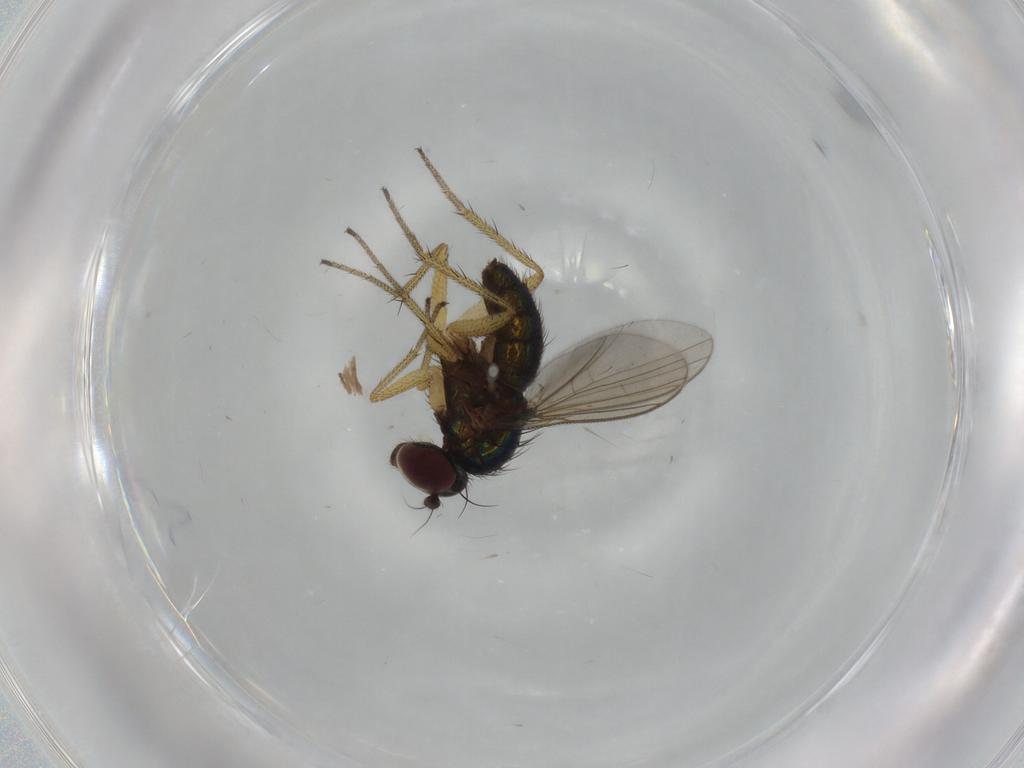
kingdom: Animalia
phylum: Arthropoda
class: Insecta
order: Diptera
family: Dolichopodidae
